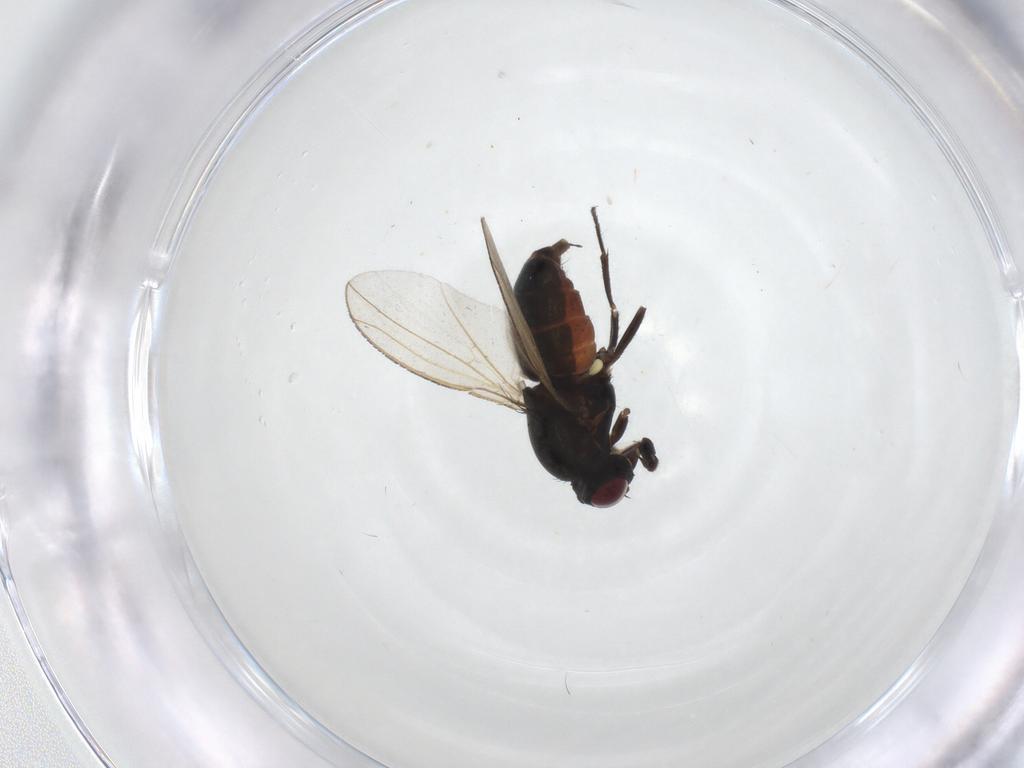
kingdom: Animalia
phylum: Arthropoda
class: Insecta
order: Diptera
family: Carnidae
